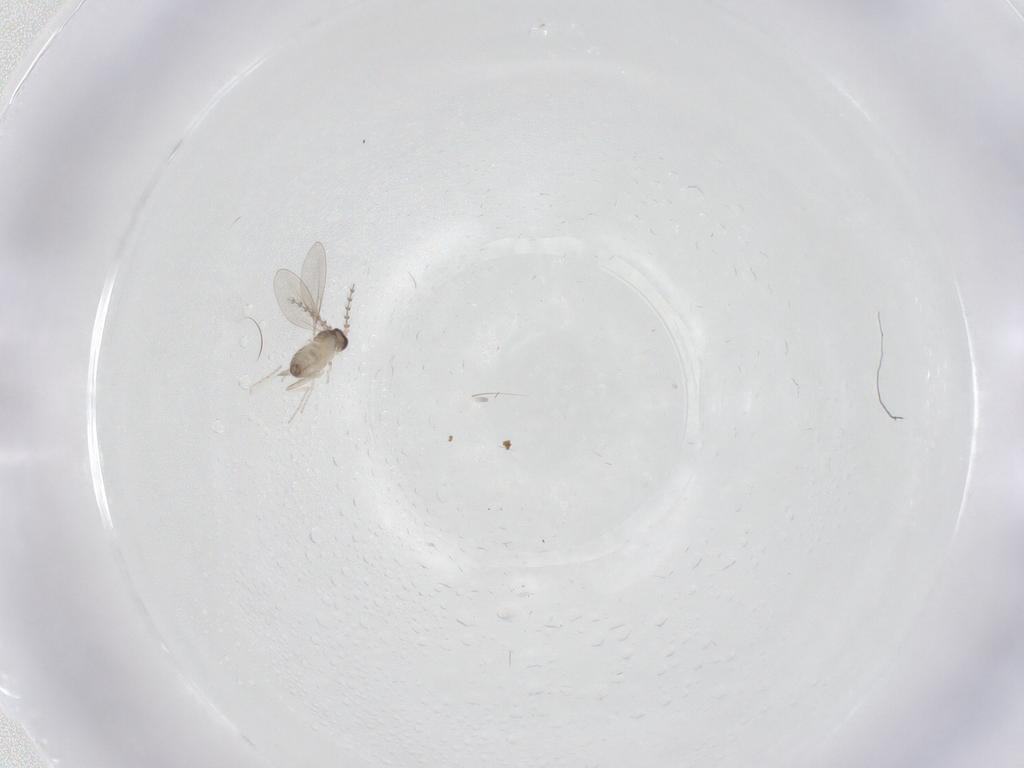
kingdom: Animalia
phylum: Arthropoda
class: Insecta
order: Diptera
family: Cecidomyiidae
